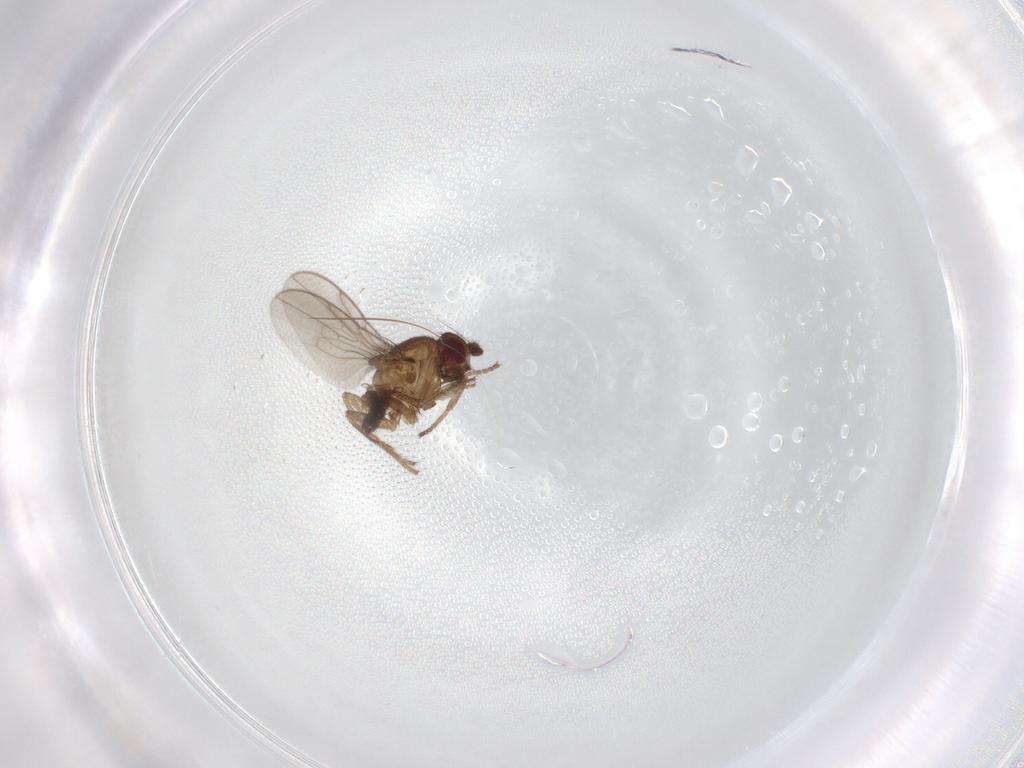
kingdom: Animalia
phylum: Arthropoda
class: Insecta
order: Diptera
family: Sphaeroceridae
